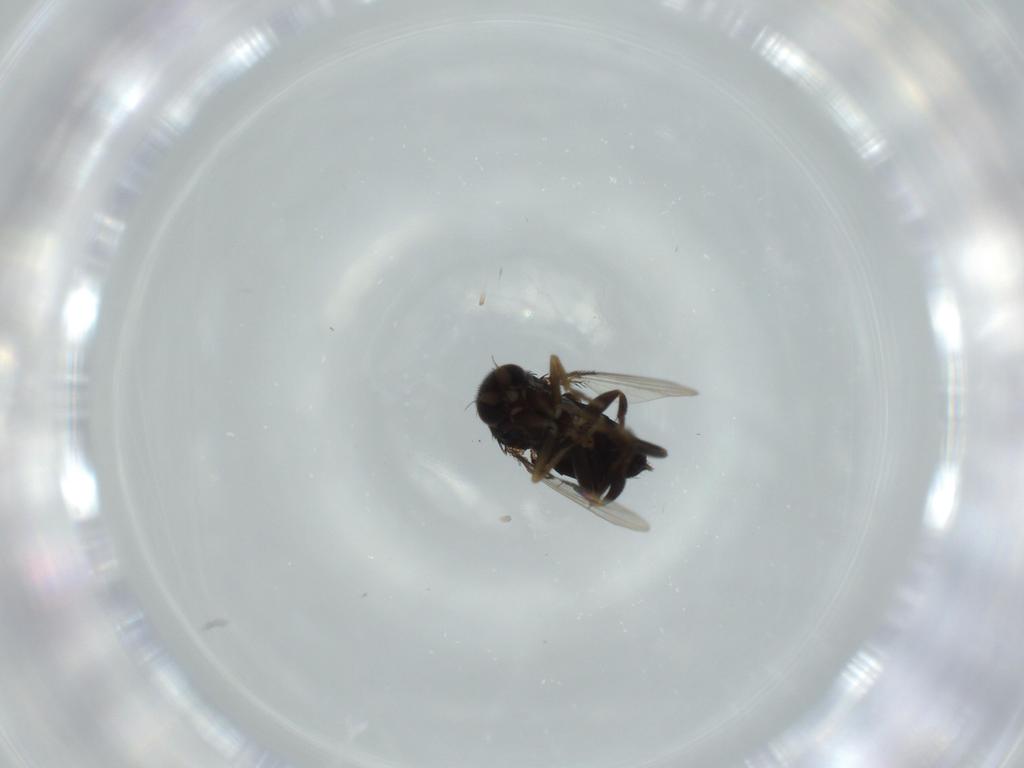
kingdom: Animalia
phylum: Arthropoda
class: Insecta
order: Diptera
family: Phoridae
